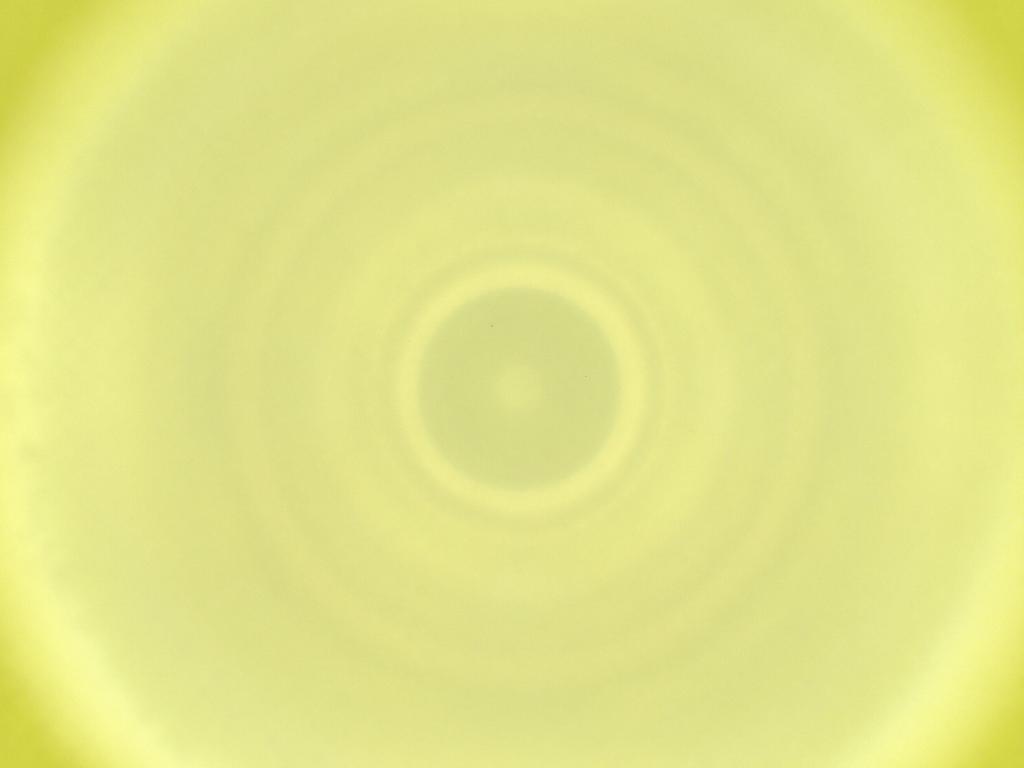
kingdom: Animalia
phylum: Arthropoda
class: Insecta
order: Diptera
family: Cecidomyiidae
